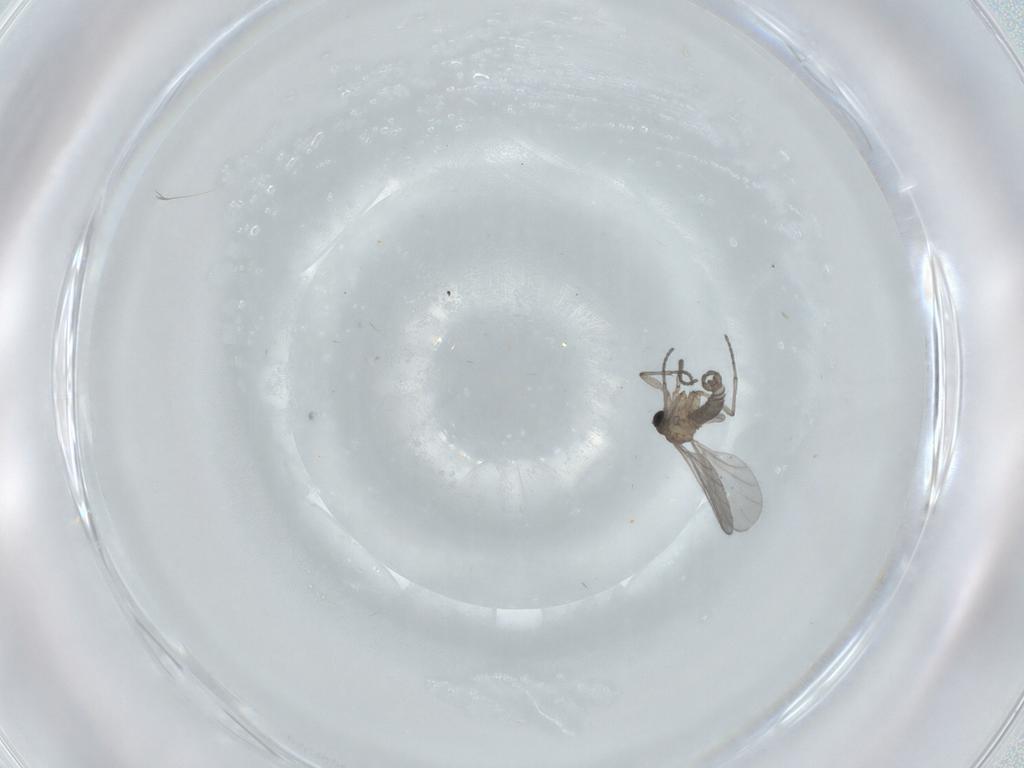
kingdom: Animalia
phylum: Arthropoda
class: Insecta
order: Diptera
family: Sciaridae
